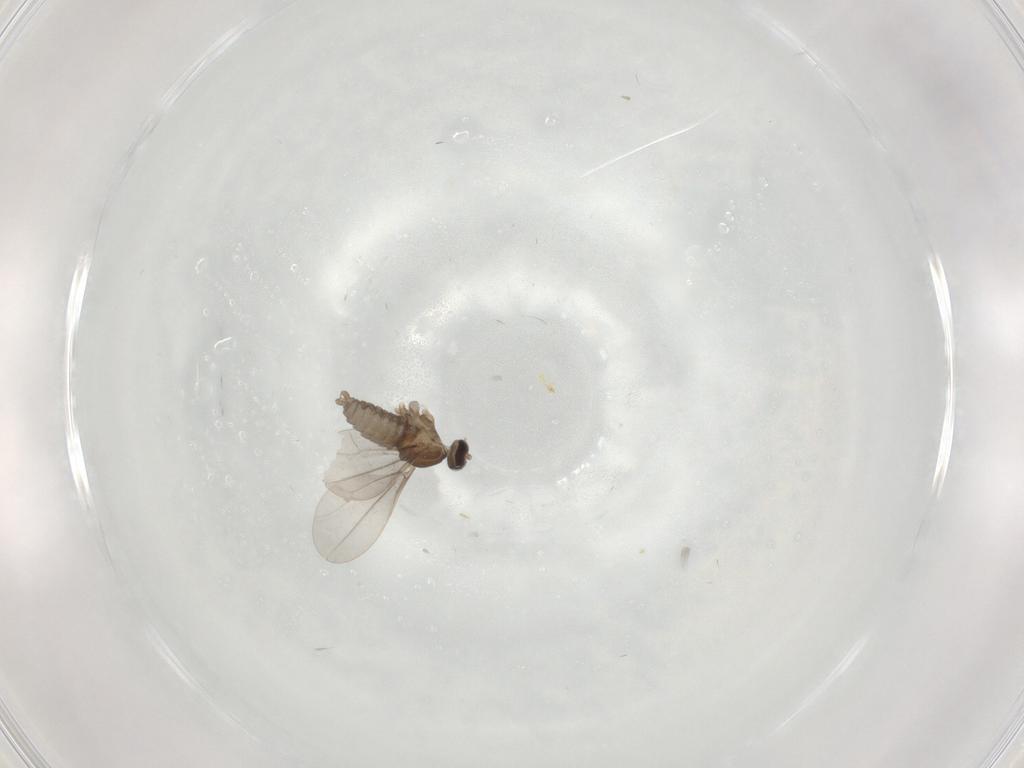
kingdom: Animalia
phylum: Arthropoda
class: Insecta
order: Diptera
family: Cecidomyiidae
